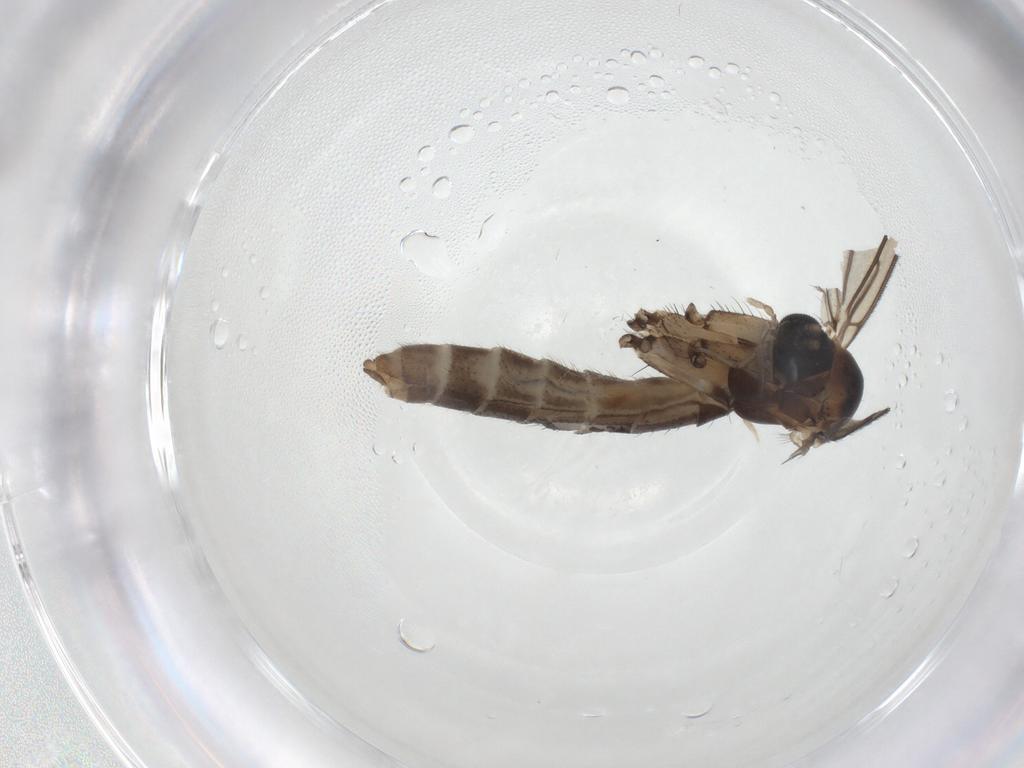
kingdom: Animalia
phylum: Arthropoda
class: Insecta
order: Diptera
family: Mycetophilidae
